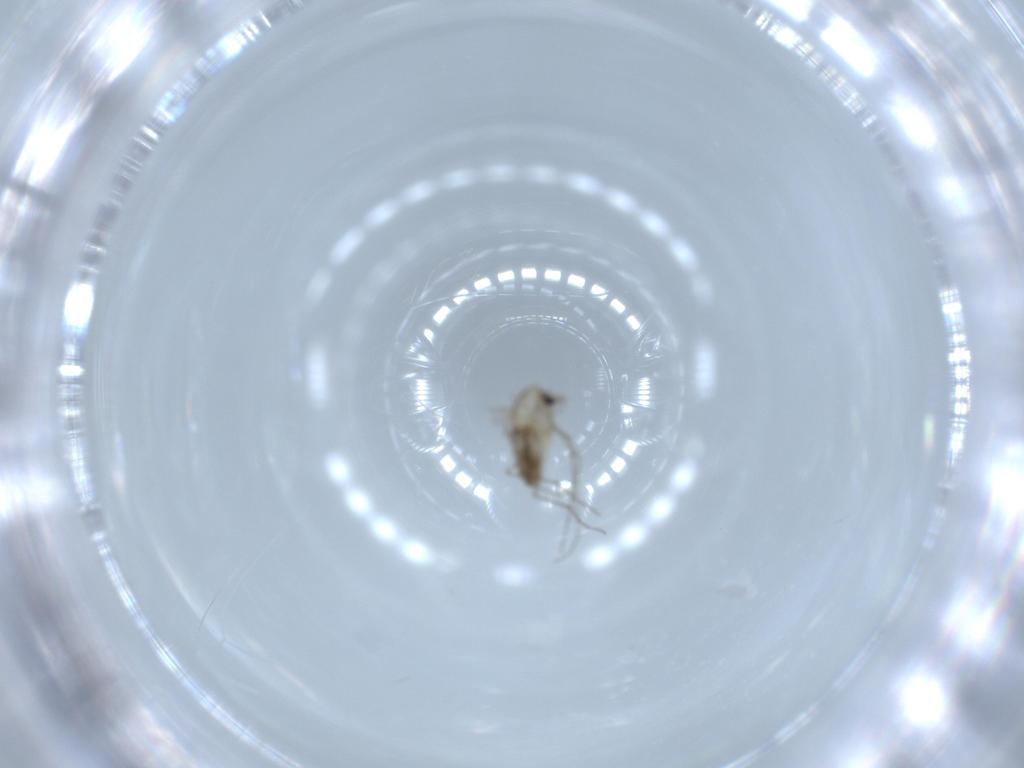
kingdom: Animalia
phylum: Arthropoda
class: Insecta
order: Diptera
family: Chironomidae
